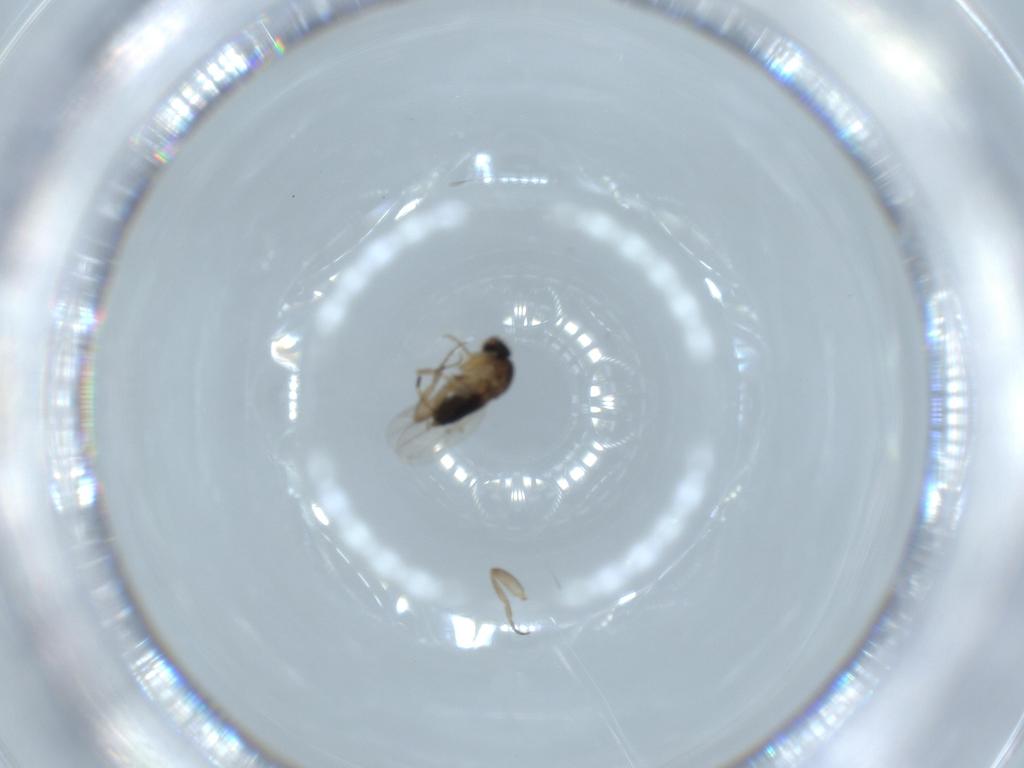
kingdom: Animalia
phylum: Arthropoda
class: Insecta
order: Diptera
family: Phoridae
